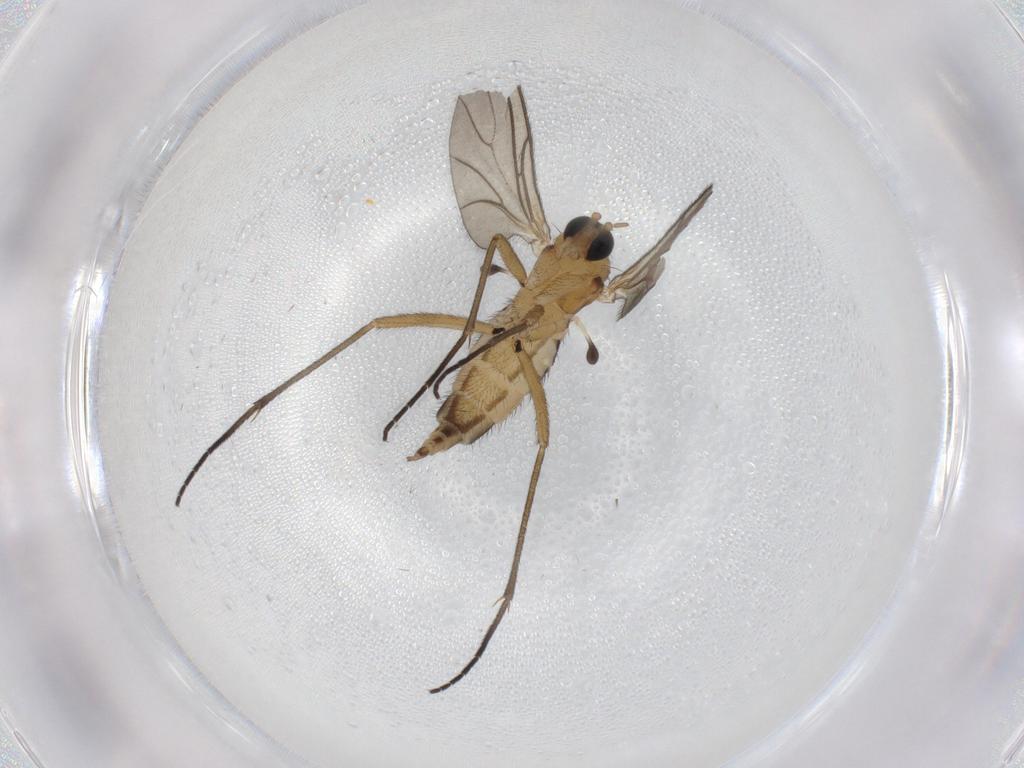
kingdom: Animalia
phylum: Arthropoda
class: Insecta
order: Diptera
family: Sciaridae
